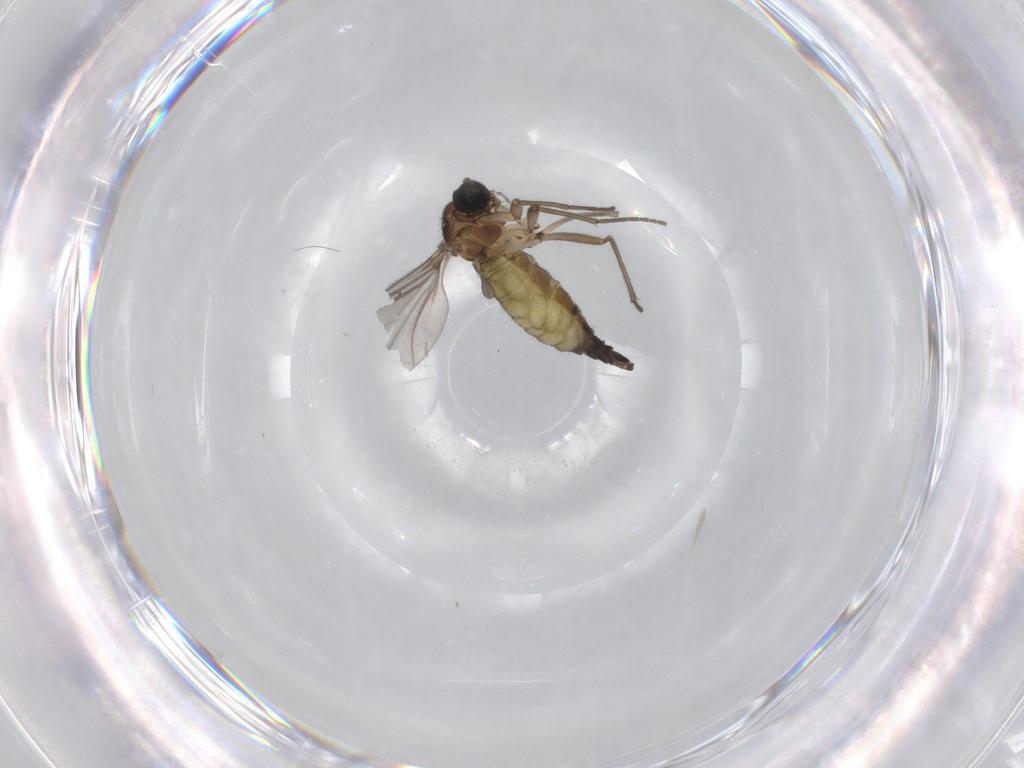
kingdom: Animalia
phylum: Arthropoda
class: Insecta
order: Diptera
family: Sciaridae
